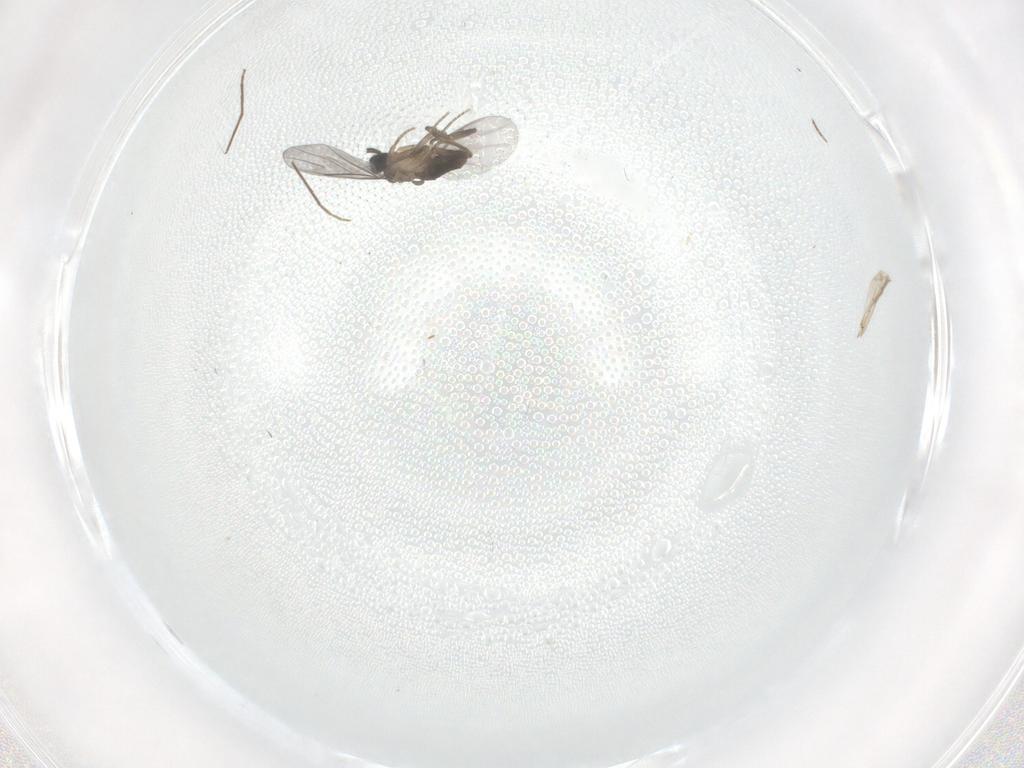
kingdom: Animalia
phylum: Arthropoda
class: Insecta
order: Diptera
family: Chironomidae
